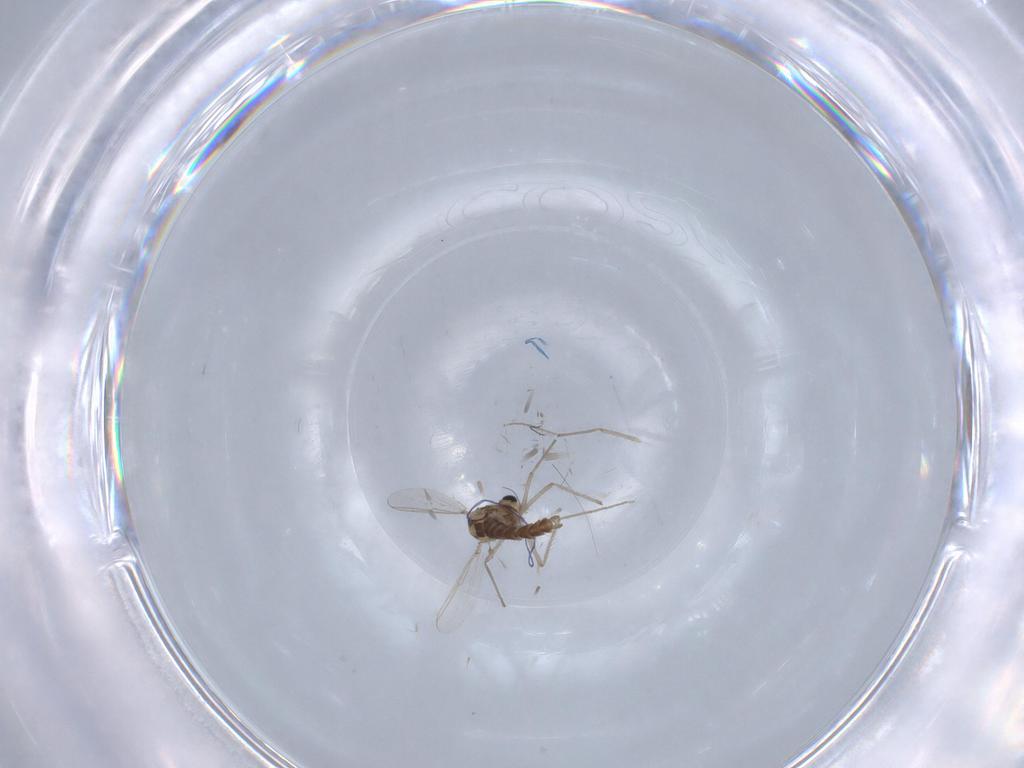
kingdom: Animalia
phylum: Arthropoda
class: Insecta
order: Diptera
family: Chironomidae
